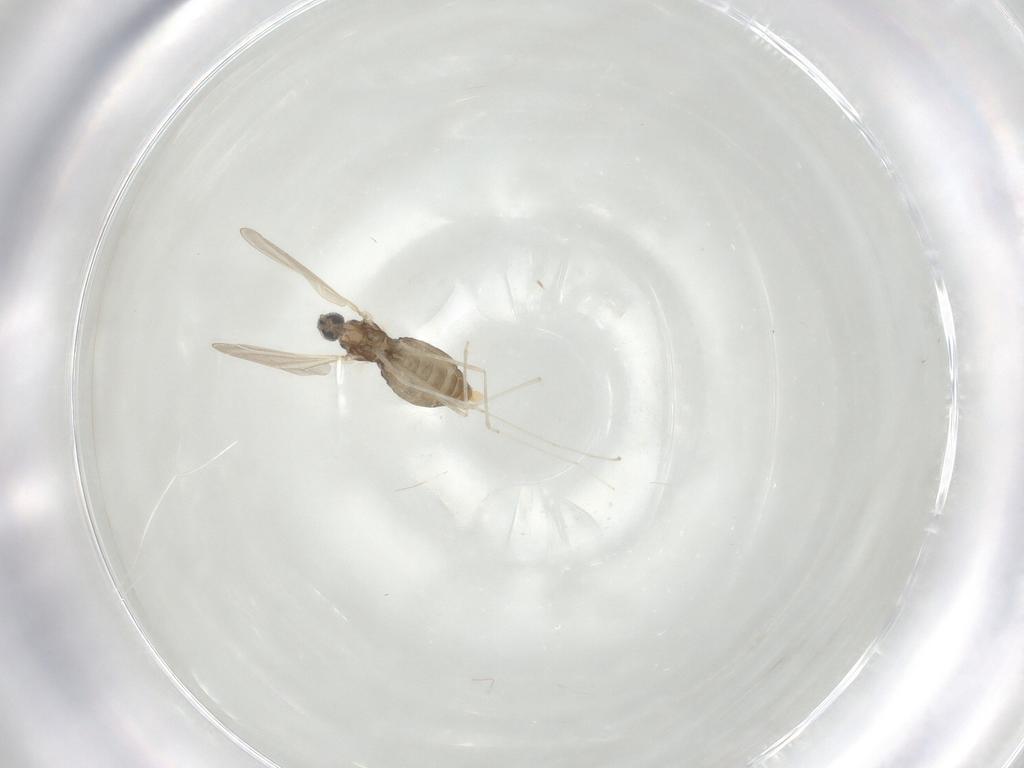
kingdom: Animalia
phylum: Arthropoda
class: Insecta
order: Diptera
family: Cecidomyiidae
